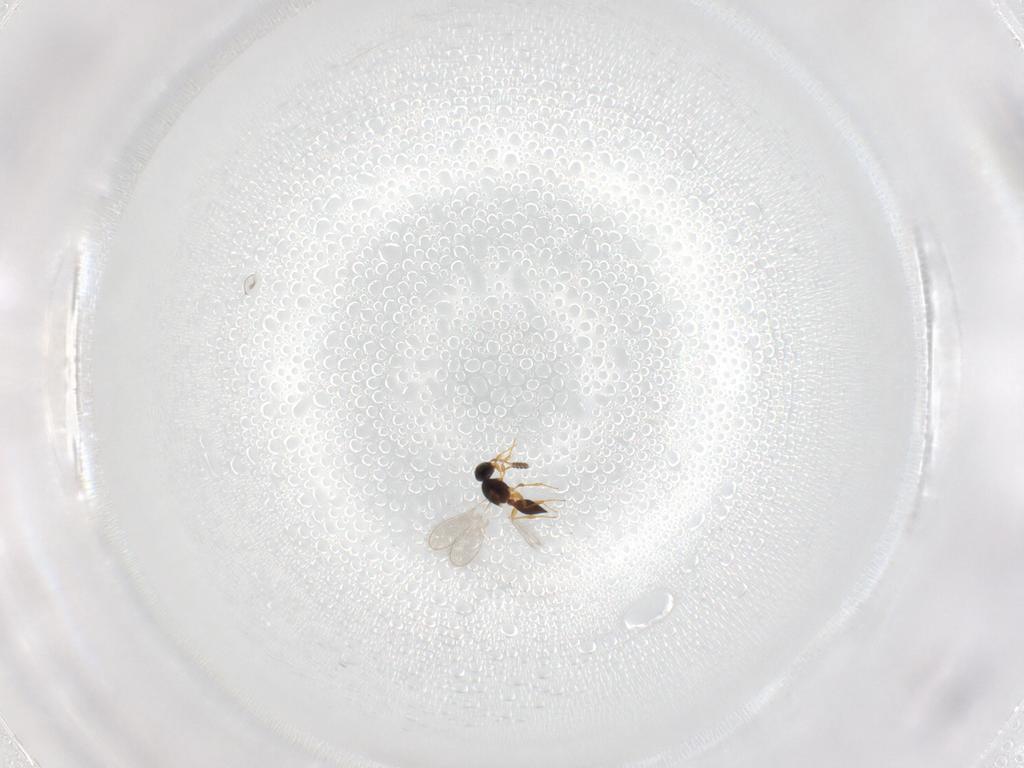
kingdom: Animalia
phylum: Arthropoda
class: Insecta
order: Hymenoptera
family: Platygastridae
